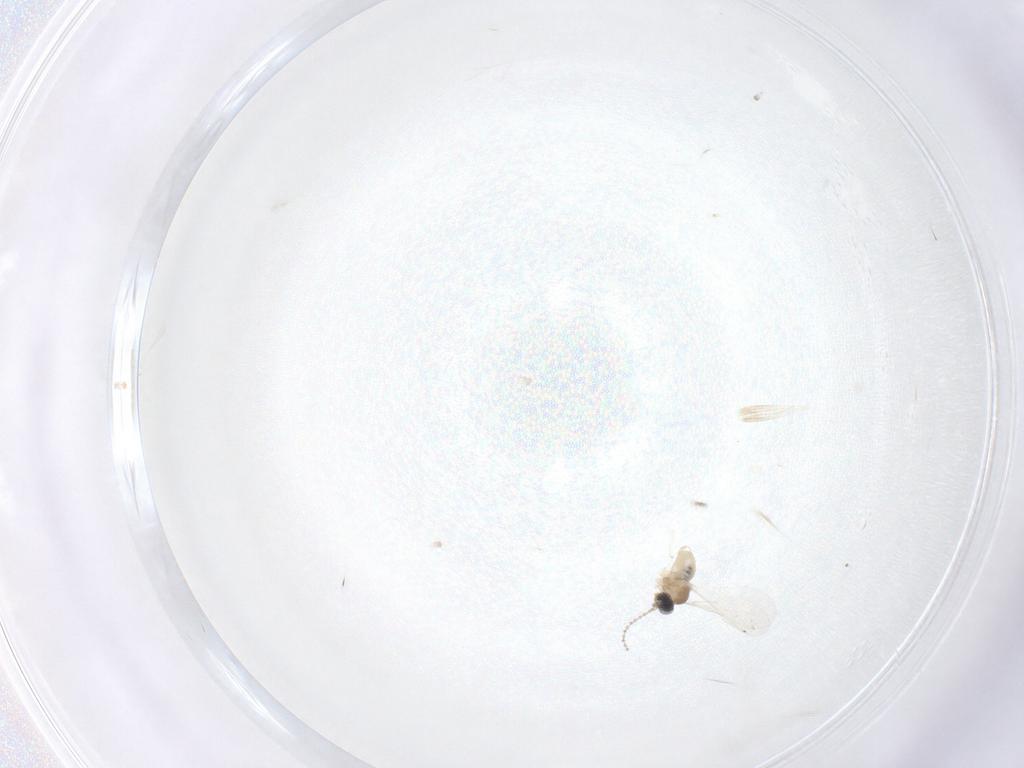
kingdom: Animalia
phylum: Arthropoda
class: Insecta
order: Diptera
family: Cecidomyiidae
